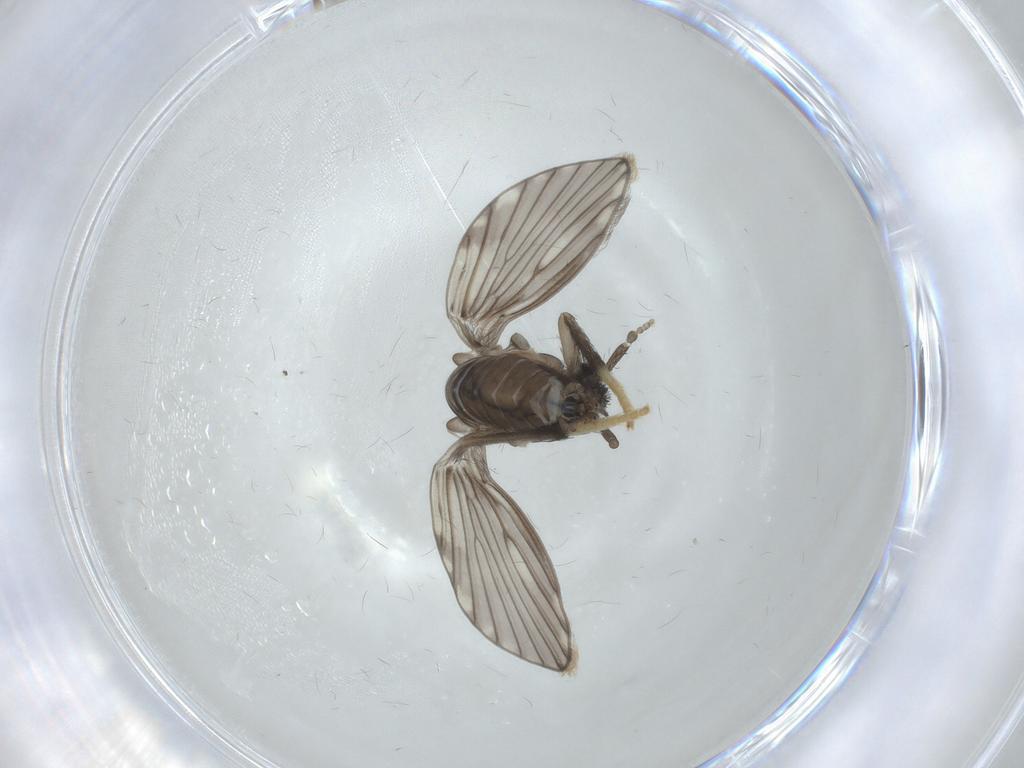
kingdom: Animalia
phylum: Arthropoda
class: Insecta
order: Diptera
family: Psychodidae
